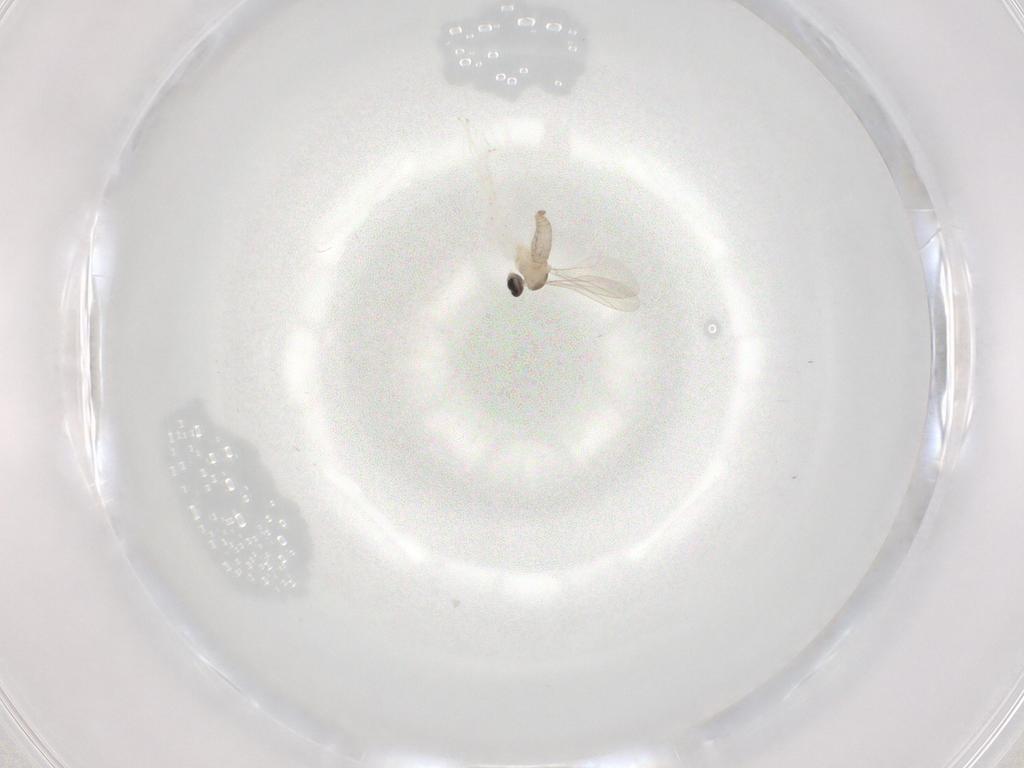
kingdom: Animalia
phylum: Arthropoda
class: Insecta
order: Diptera
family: Cecidomyiidae
